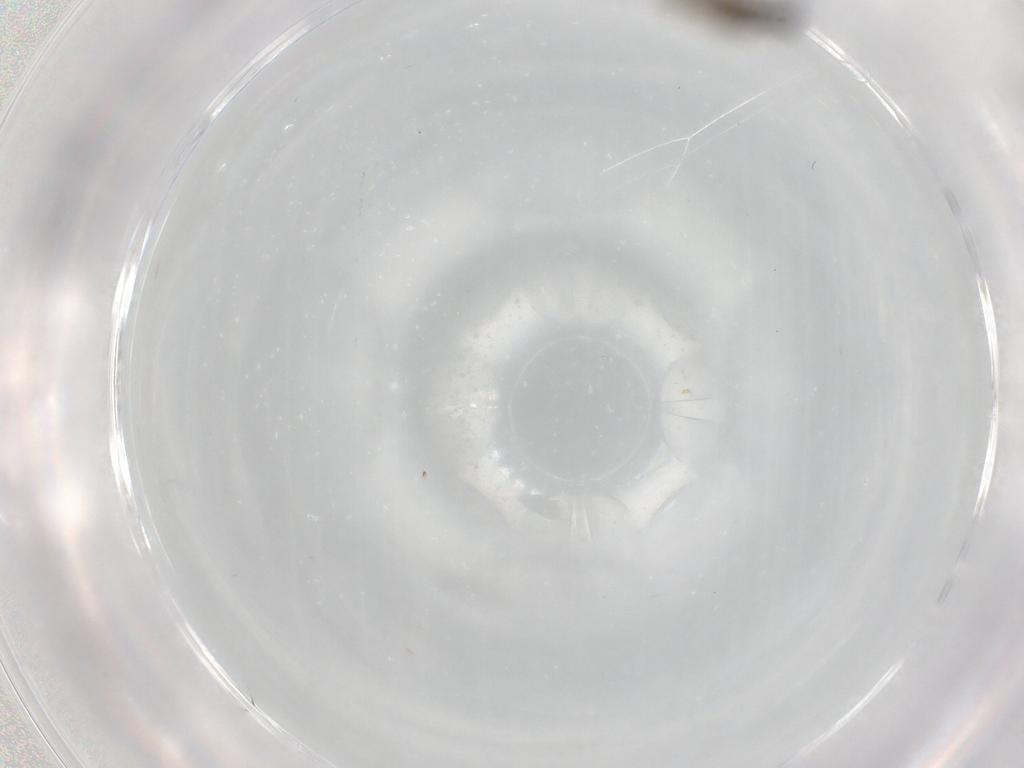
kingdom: Animalia
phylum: Arthropoda
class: Insecta
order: Diptera
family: Cecidomyiidae
